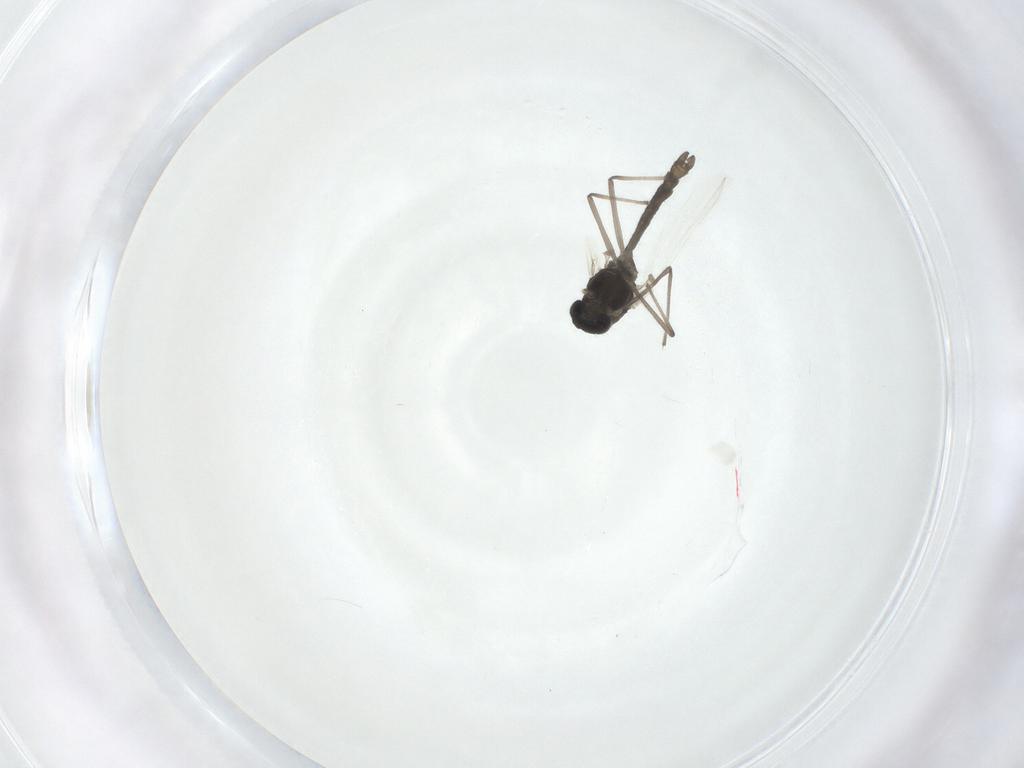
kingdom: Animalia
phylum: Arthropoda
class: Insecta
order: Diptera
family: Chironomidae
